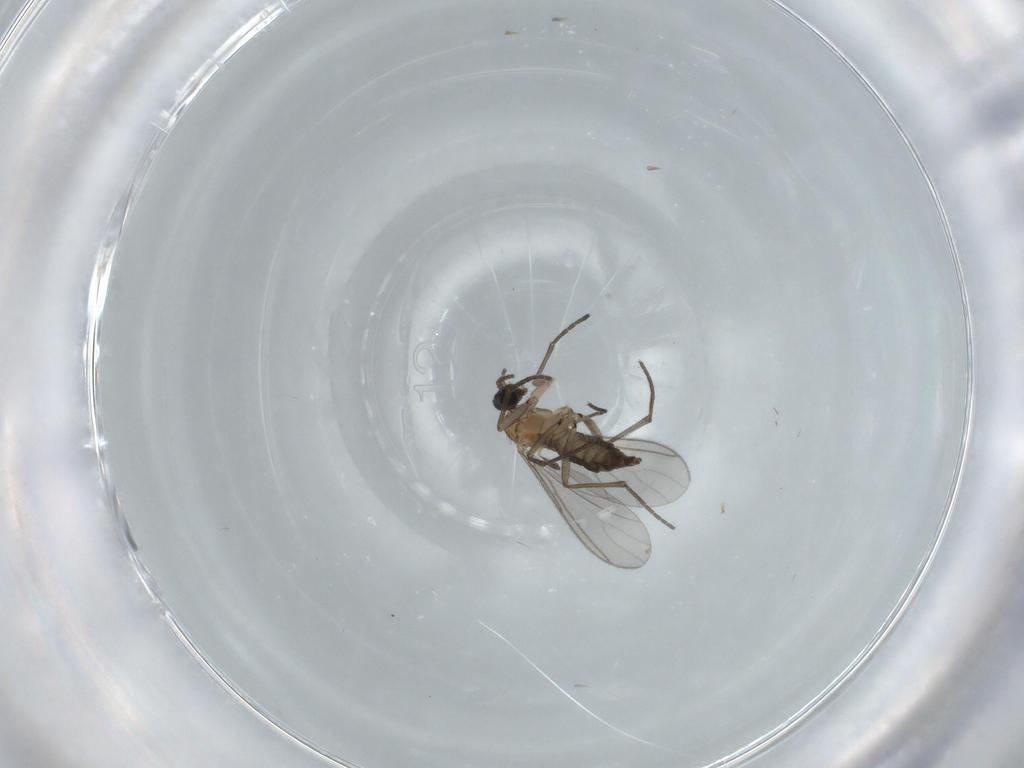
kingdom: Animalia
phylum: Arthropoda
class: Insecta
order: Diptera
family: Sciaridae
